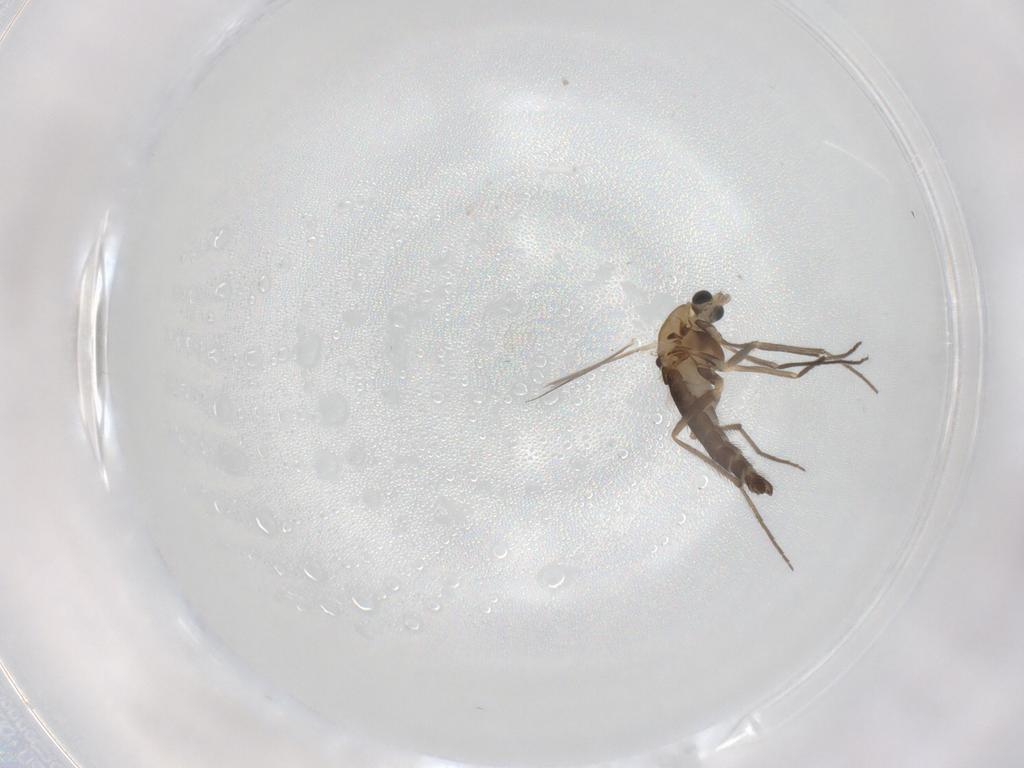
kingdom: Animalia
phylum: Arthropoda
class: Insecta
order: Diptera
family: Chironomidae
